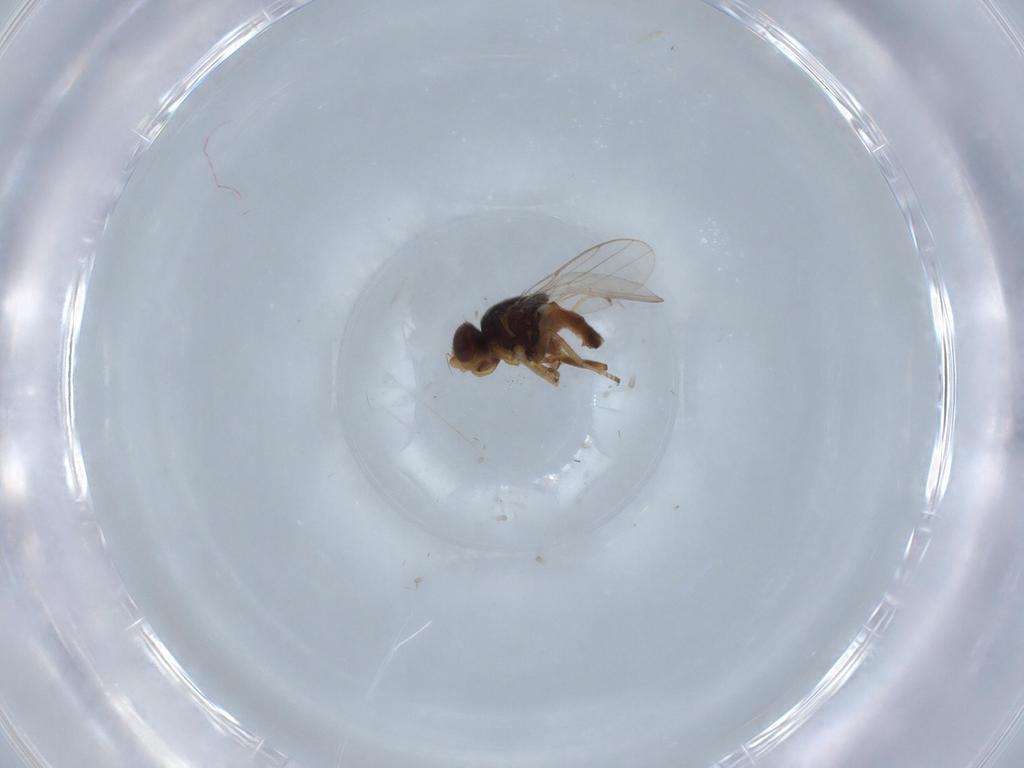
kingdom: Animalia
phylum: Arthropoda
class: Insecta
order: Diptera
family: Chloropidae
